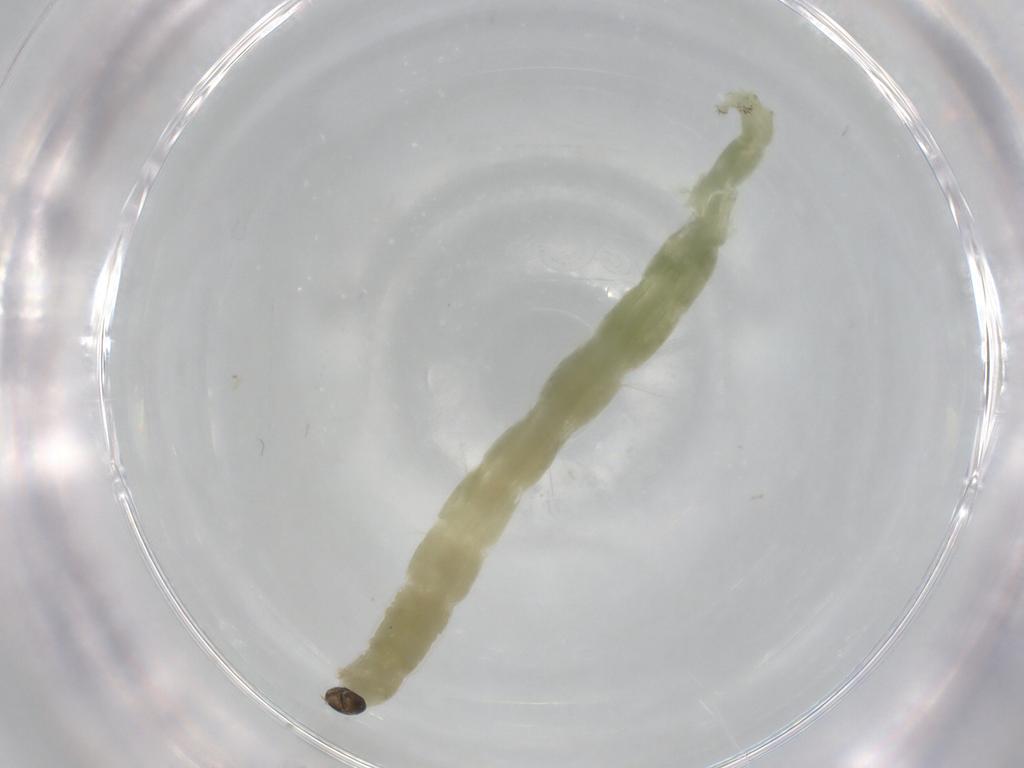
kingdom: Animalia
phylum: Arthropoda
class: Insecta
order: Diptera
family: Chironomidae
